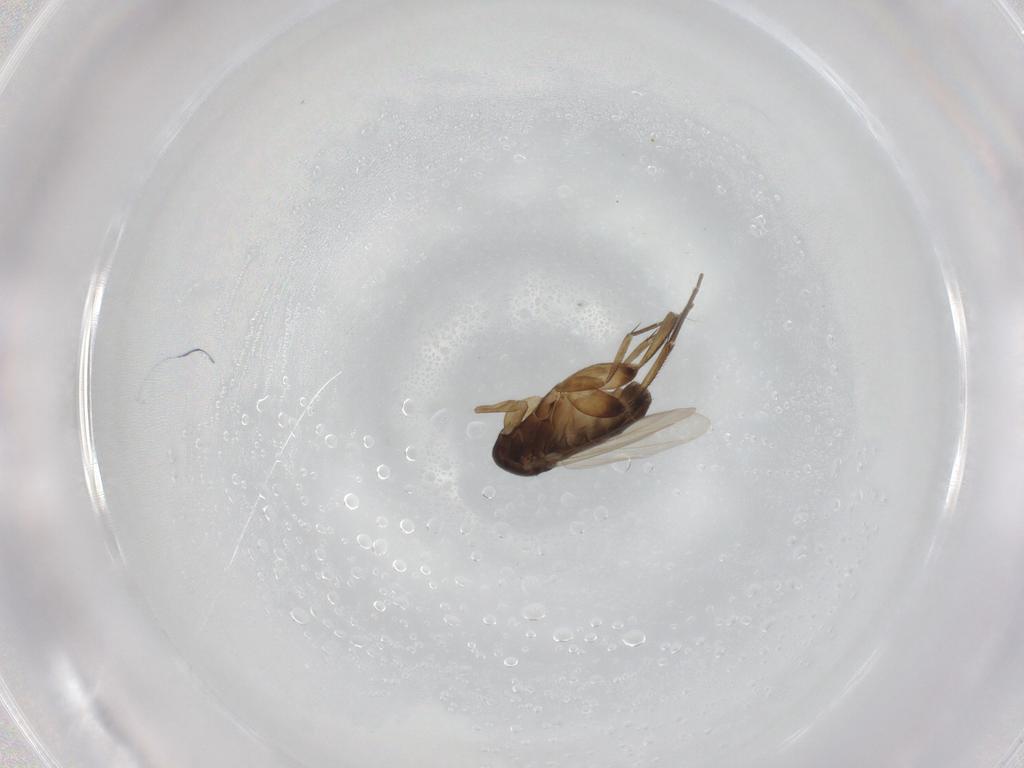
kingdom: Animalia
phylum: Arthropoda
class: Insecta
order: Diptera
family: Phoridae
